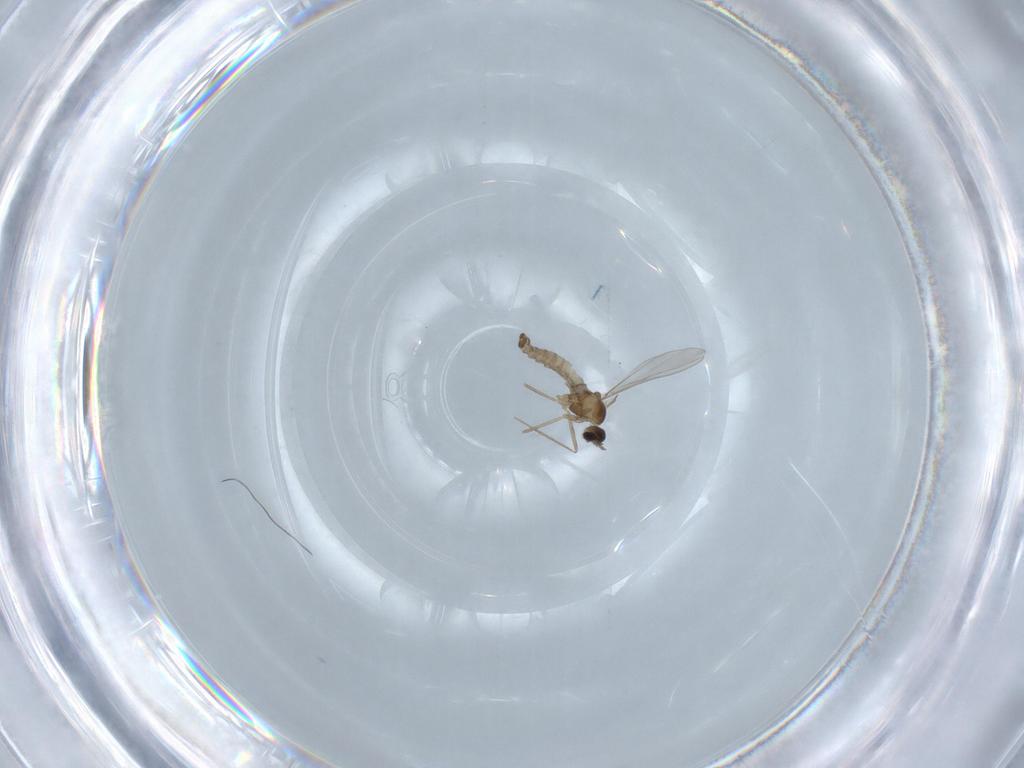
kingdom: Animalia
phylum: Arthropoda
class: Insecta
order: Diptera
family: Cecidomyiidae
